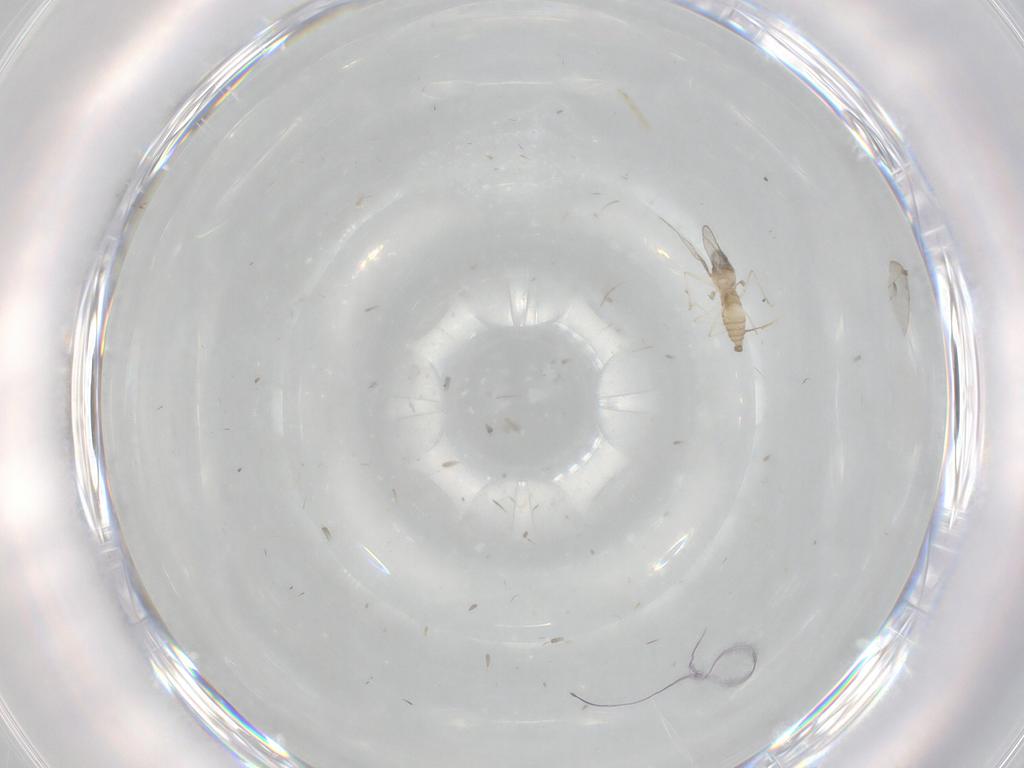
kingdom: Animalia
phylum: Arthropoda
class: Insecta
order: Diptera
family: Cecidomyiidae
